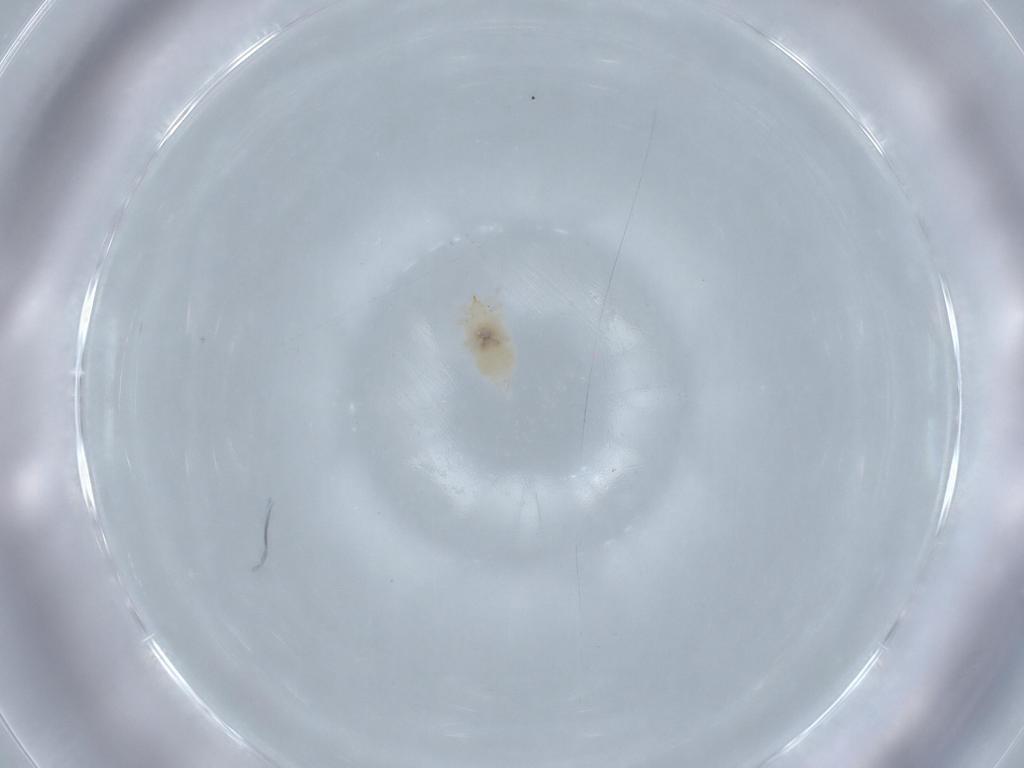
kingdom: Animalia
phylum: Arthropoda
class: Insecta
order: Neuroptera
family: Coniopterygidae
